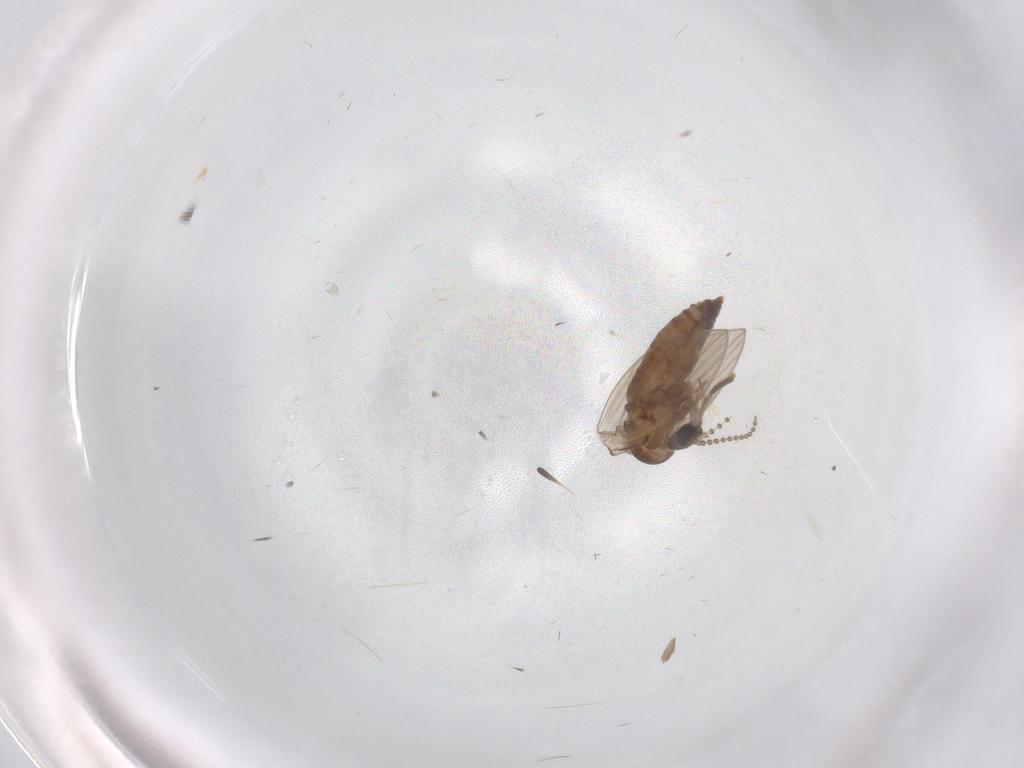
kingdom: Animalia
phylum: Arthropoda
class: Insecta
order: Diptera
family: Psychodidae
